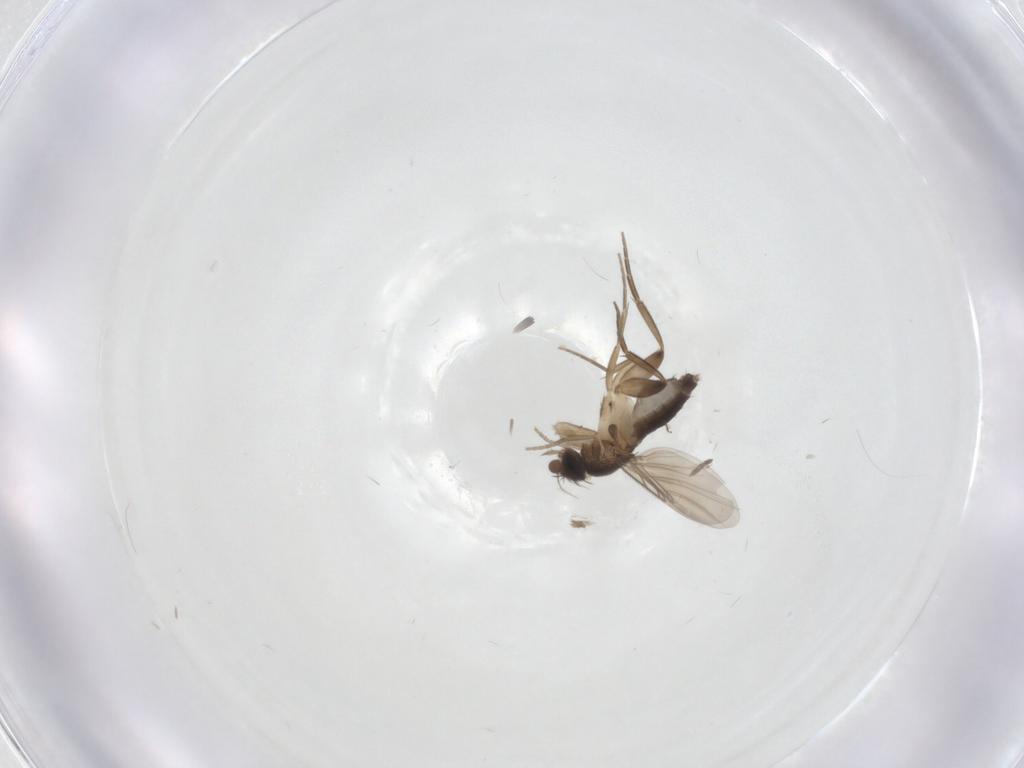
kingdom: Animalia
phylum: Arthropoda
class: Insecta
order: Diptera
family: Phoridae
